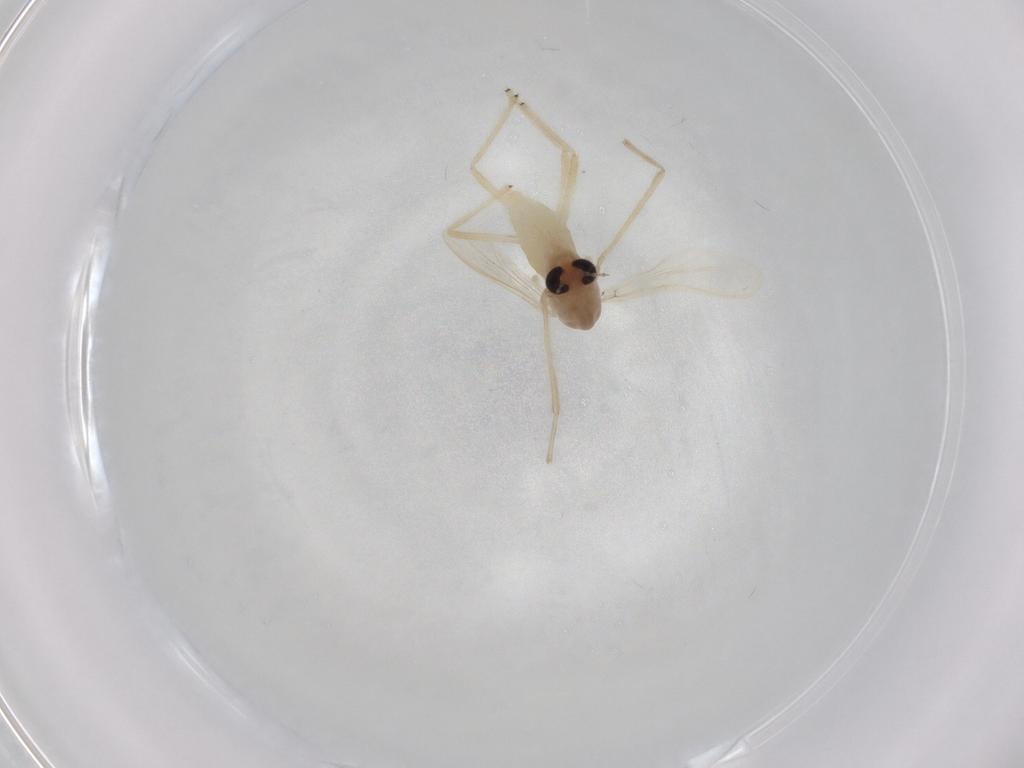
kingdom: Animalia
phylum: Arthropoda
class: Insecta
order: Diptera
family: Chironomidae
